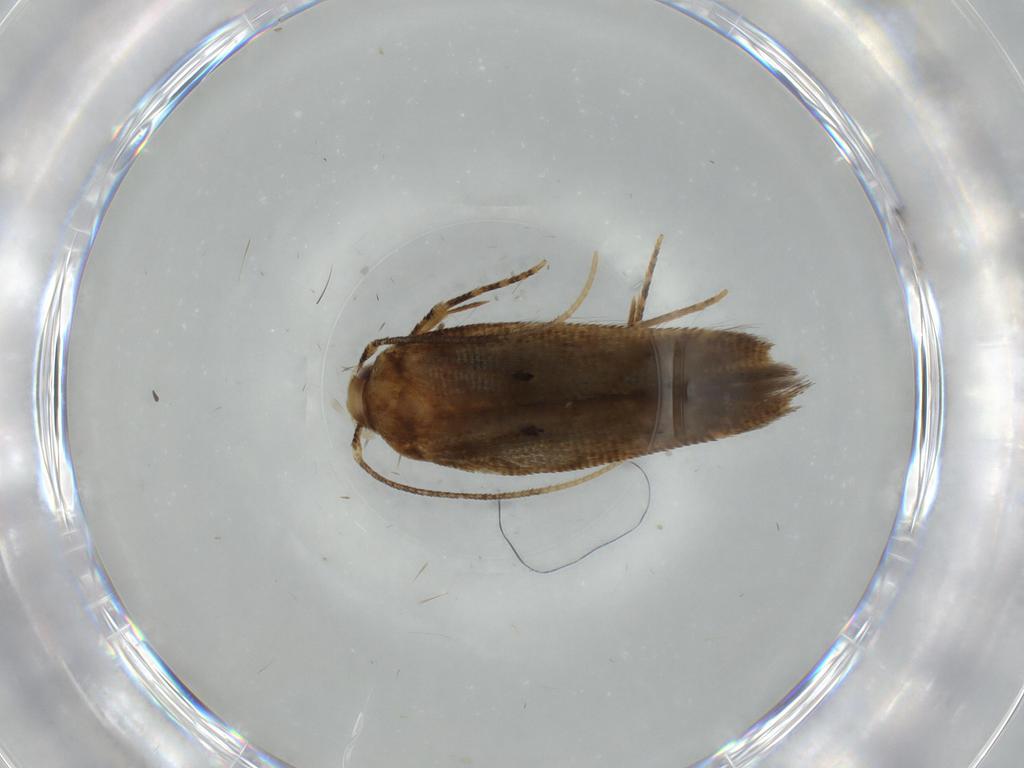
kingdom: Animalia
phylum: Arthropoda
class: Insecta
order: Lepidoptera
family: Cosmopterigidae
